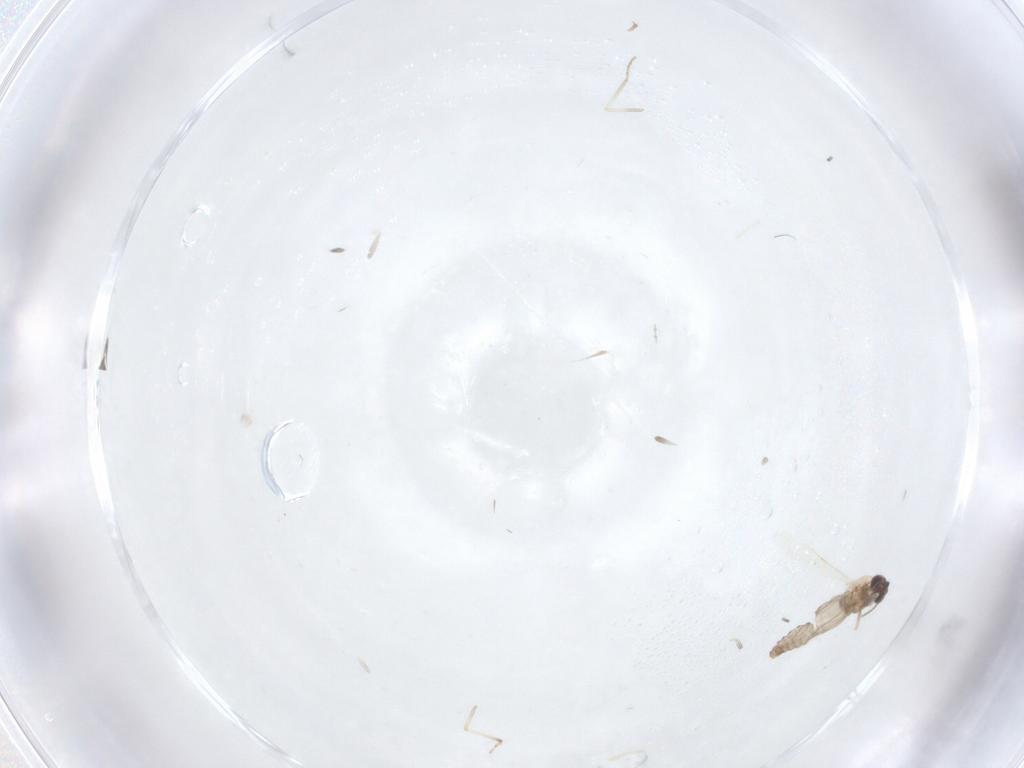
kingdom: Animalia
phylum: Arthropoda
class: Insecta
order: Diptera
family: Ceratopogonidae
